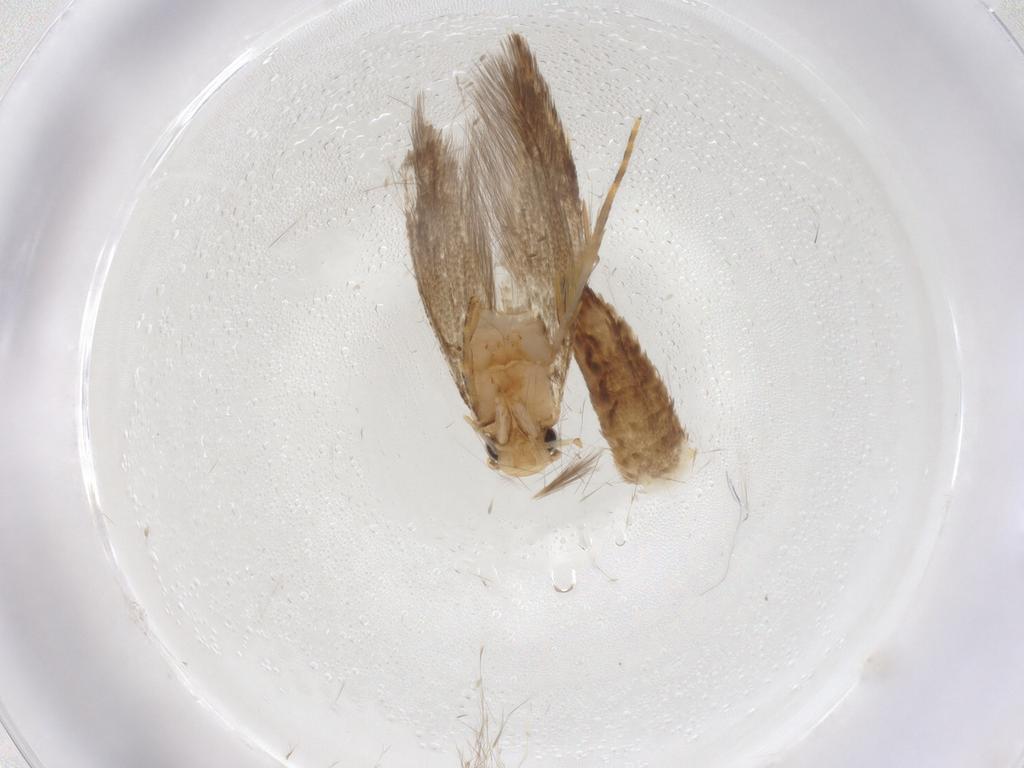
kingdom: Animalia
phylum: Arthropoda
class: Insecta
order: Lepidoptera
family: Tineidae
